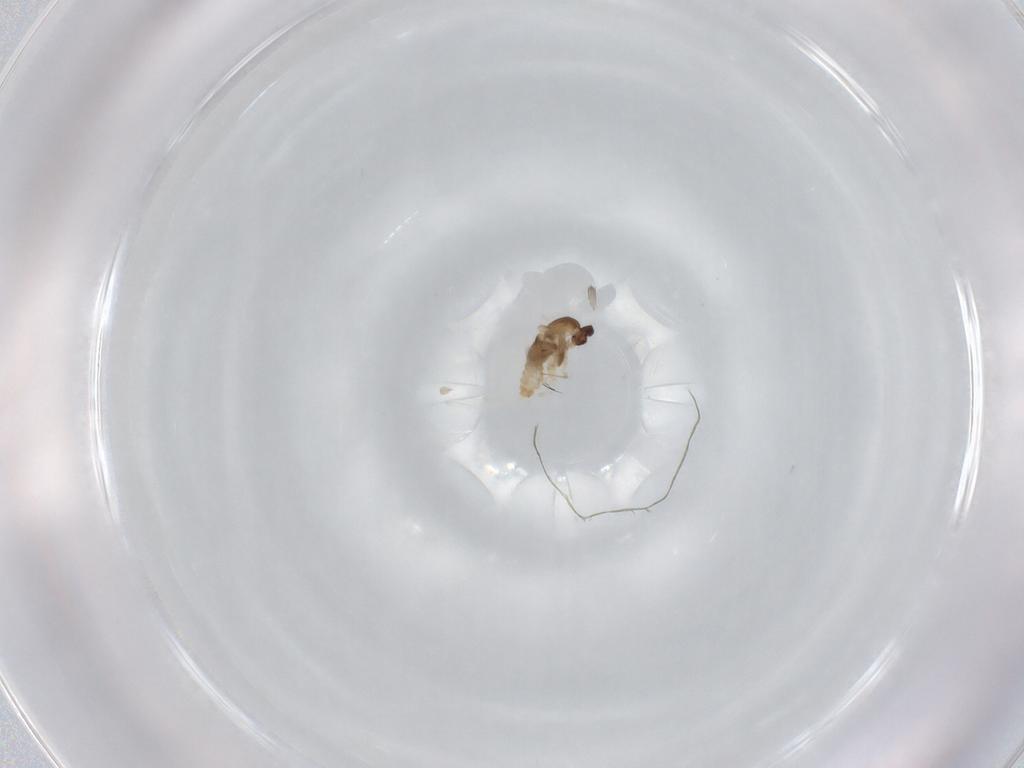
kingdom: Animalia
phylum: Arthropoda
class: Insecta
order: Diptera
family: Cecidomyiidae
